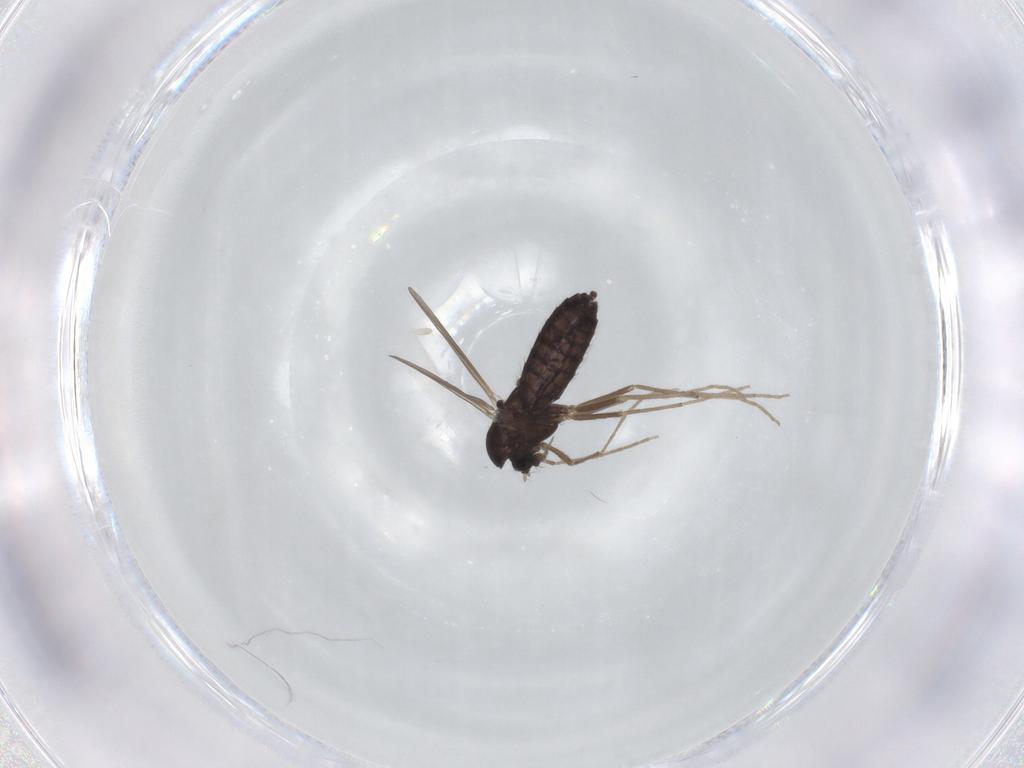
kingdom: Animalia
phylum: Arthropoda
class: Insecta
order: Diptera
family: Chironomidae
